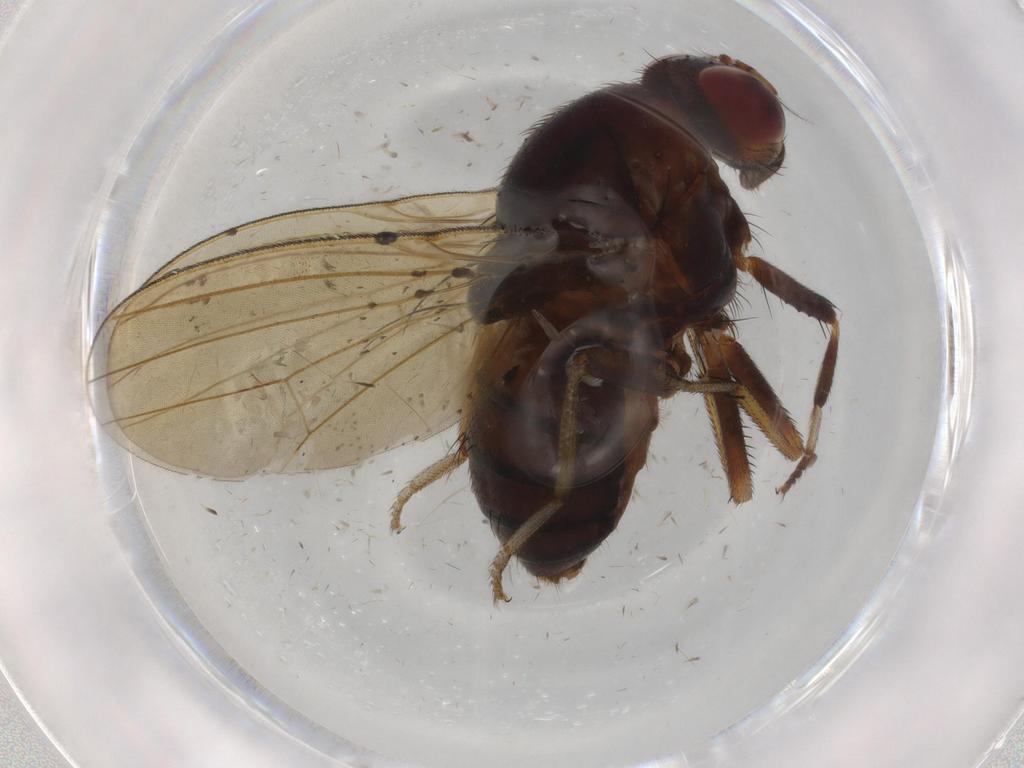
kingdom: Animalia
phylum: Arthropoda
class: Insecta
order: Diptera
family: Phoridae
